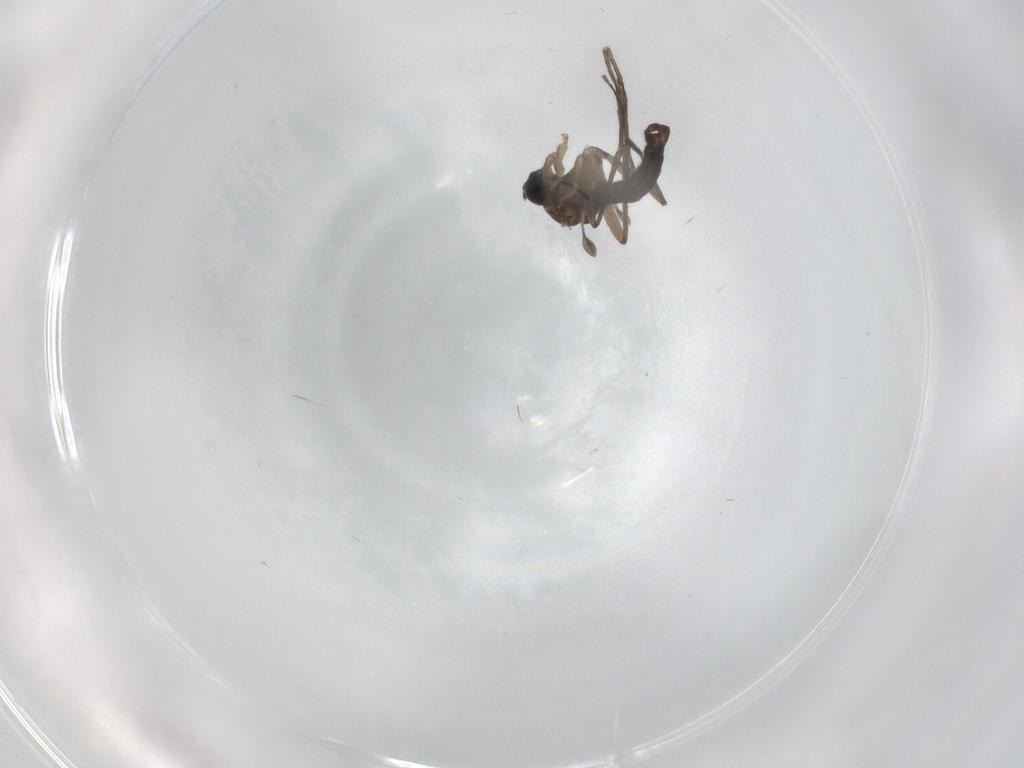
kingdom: Animalia
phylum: Arthropoda
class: Insecta
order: Diptera
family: Sciaridae
